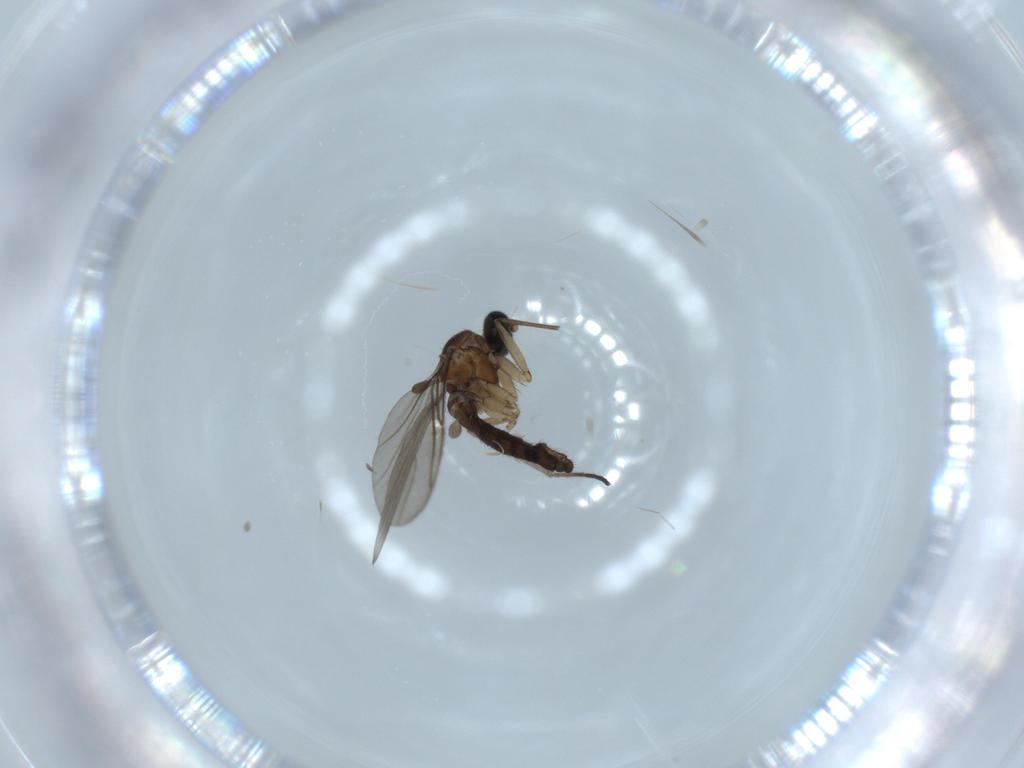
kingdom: Animalia
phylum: Arthropoda
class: Insecta
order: Diptera
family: Sciaridae
